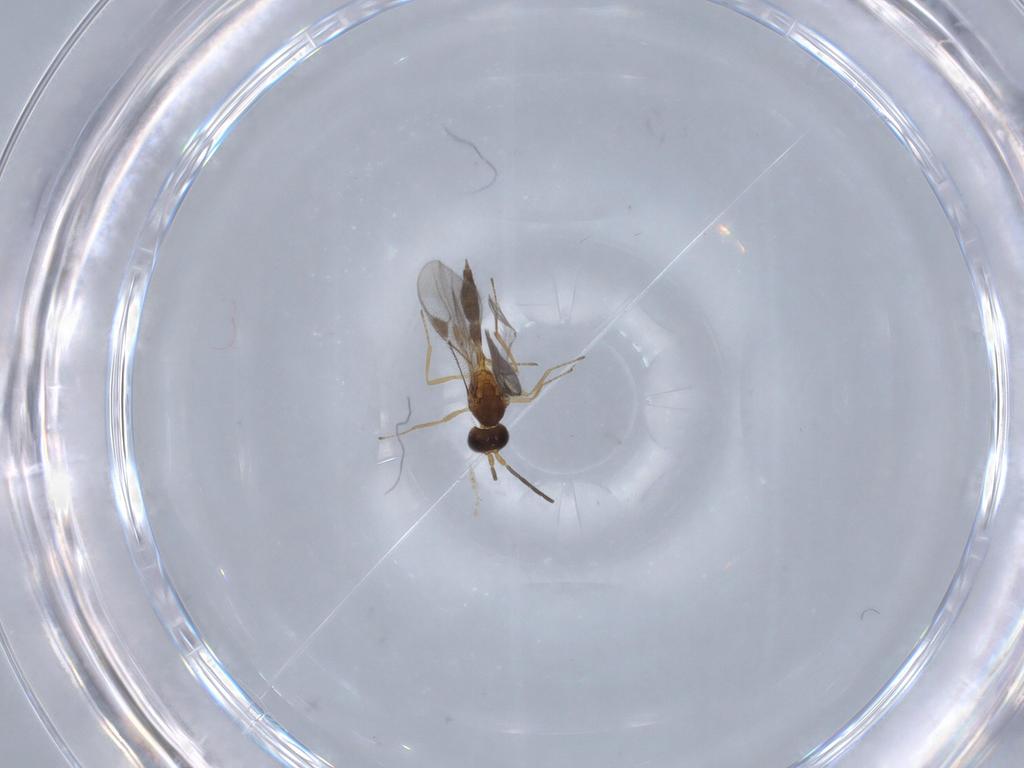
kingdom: Animalia
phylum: Arthropoda
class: Insecta
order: Hymenoptera
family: Braconidae
